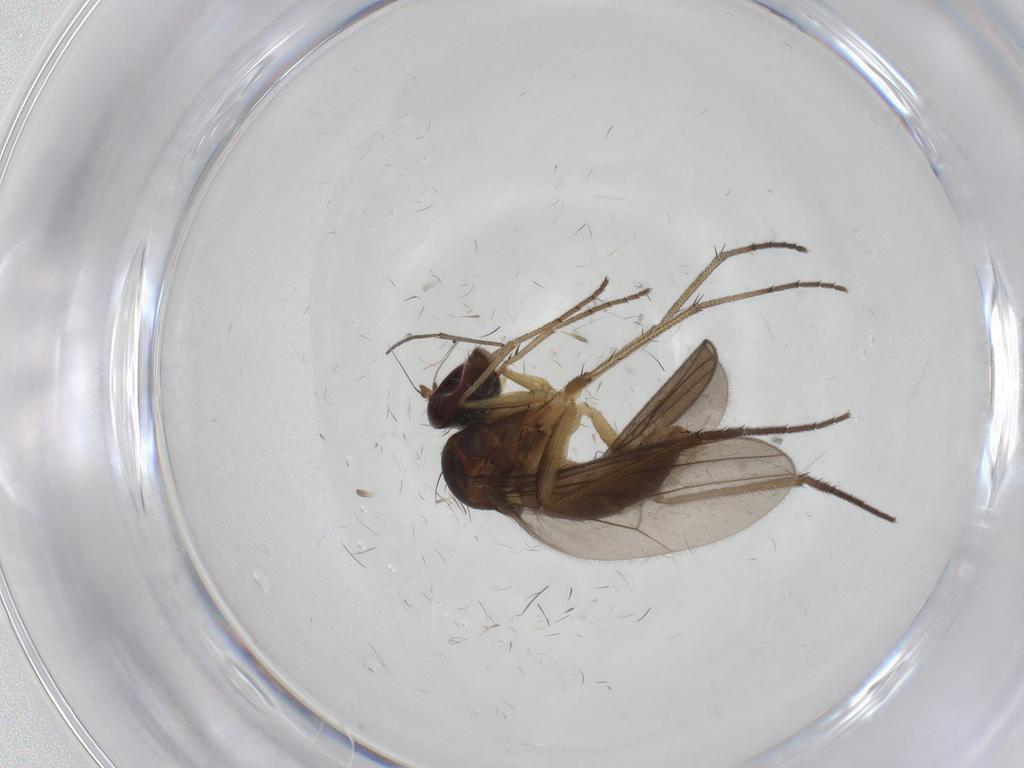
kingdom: Animalia
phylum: Arthropoda
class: Insecta
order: Diptera
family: Dolichopodidae
